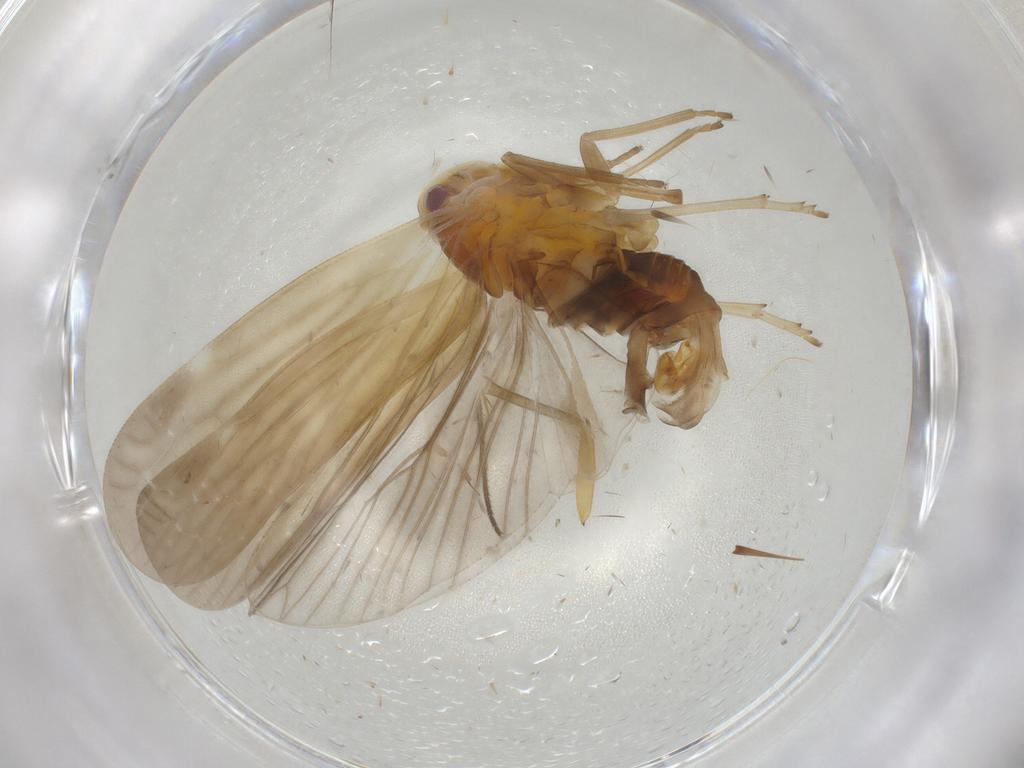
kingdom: Animalia
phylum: Arthropoda
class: Insecta
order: Hemiptera
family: Derbidae
